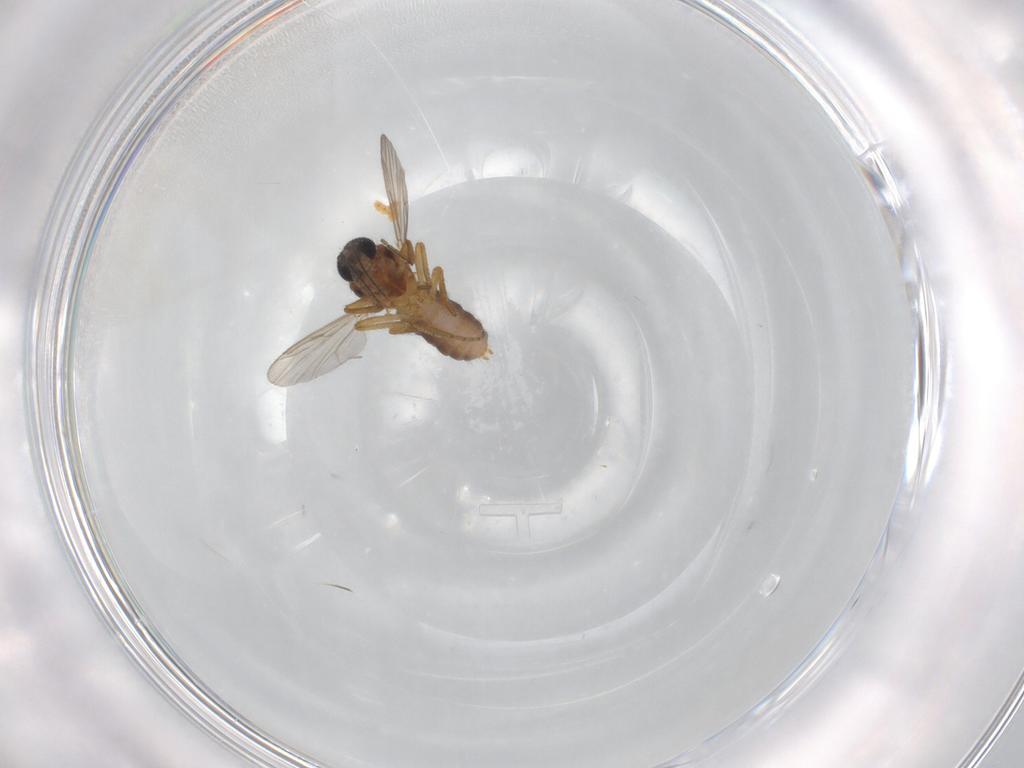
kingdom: Animalia
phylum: Arthropoda
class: Insecta
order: Diptera
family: Ceratopogonidae
